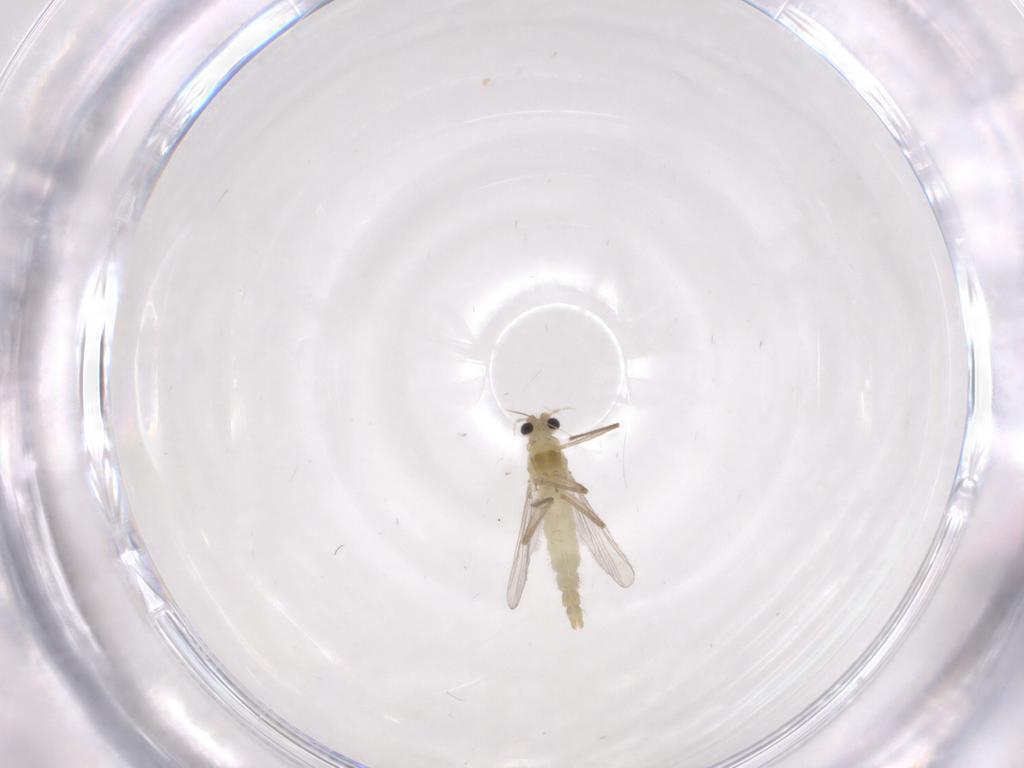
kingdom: Animalia
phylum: Arthropoda
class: Insecta
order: Diptera
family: Chironomidae
